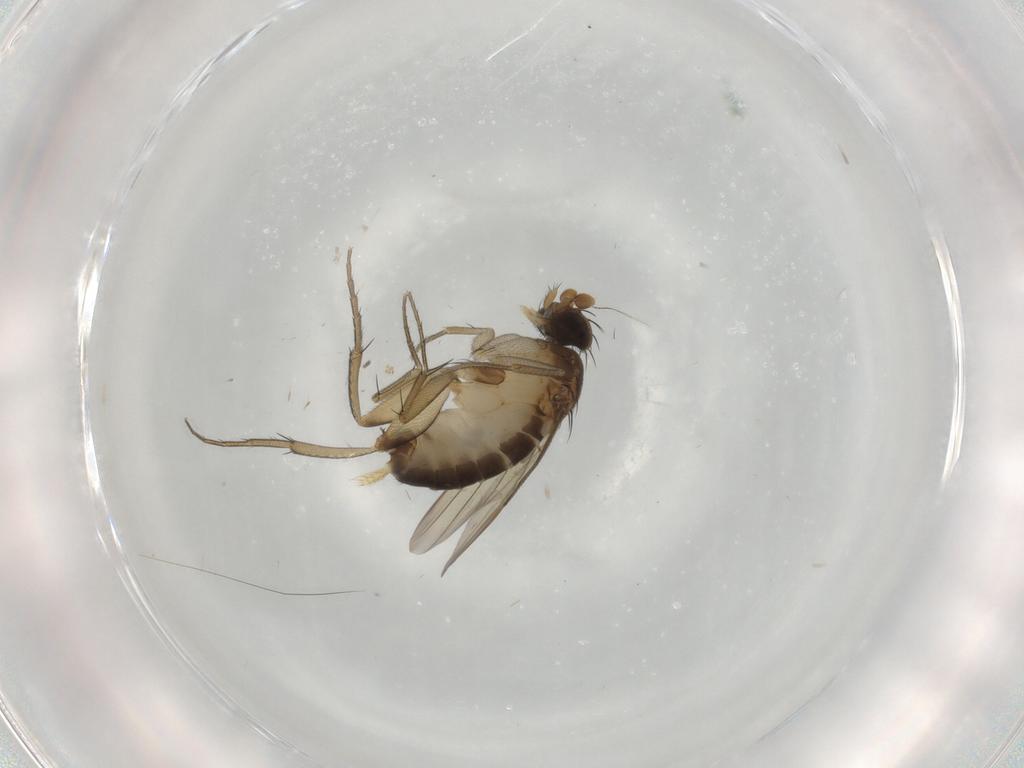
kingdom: Animalia
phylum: Arthropoda
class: Insecta
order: Diptera
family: Phoridae
